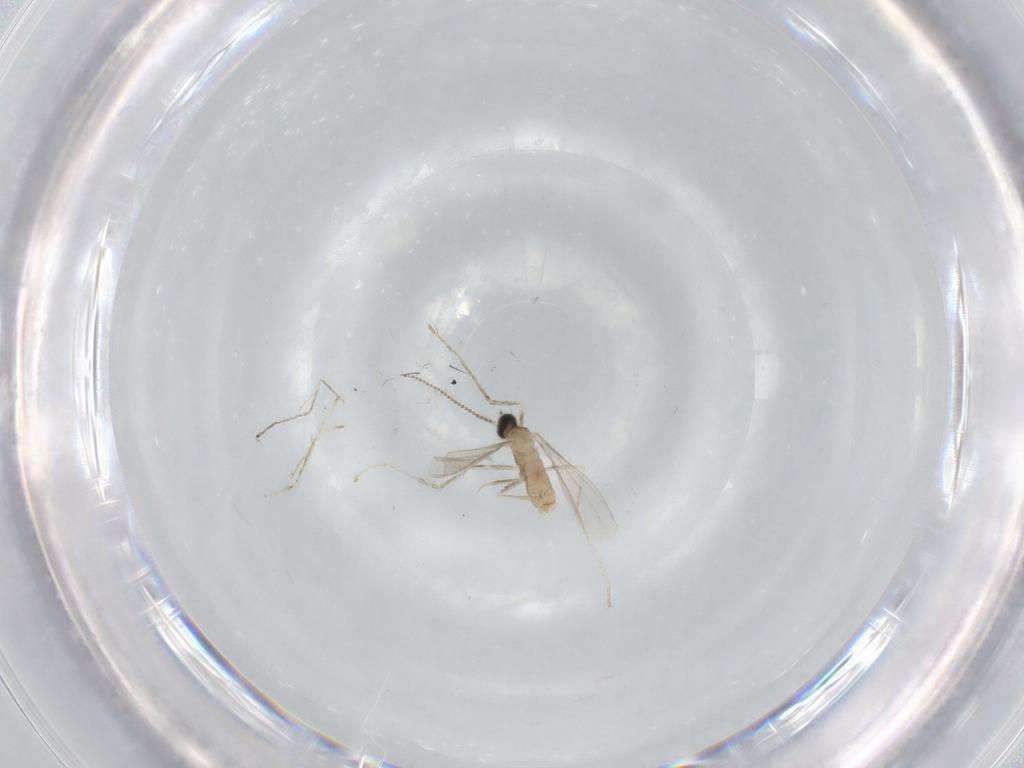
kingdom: Animalia
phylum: Arthropoda
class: Insecta
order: Diptera
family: Cecidomyiidae
